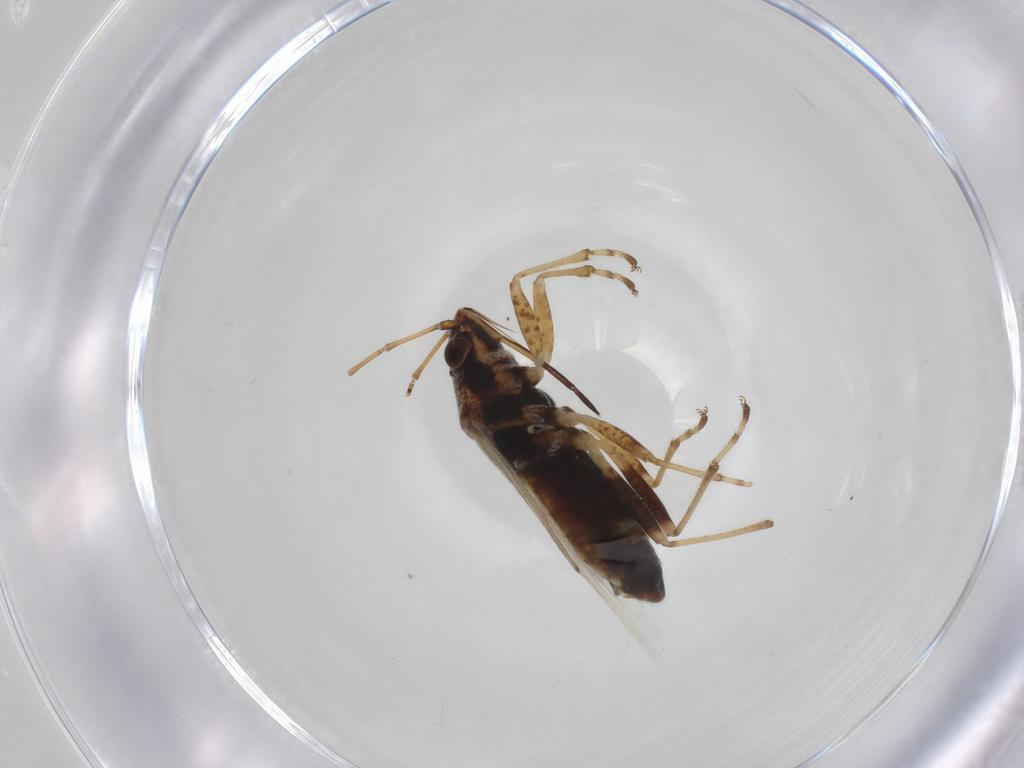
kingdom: Animalia
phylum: Arthropoda
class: Insecta
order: Hemiptera
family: Lygaeidae
